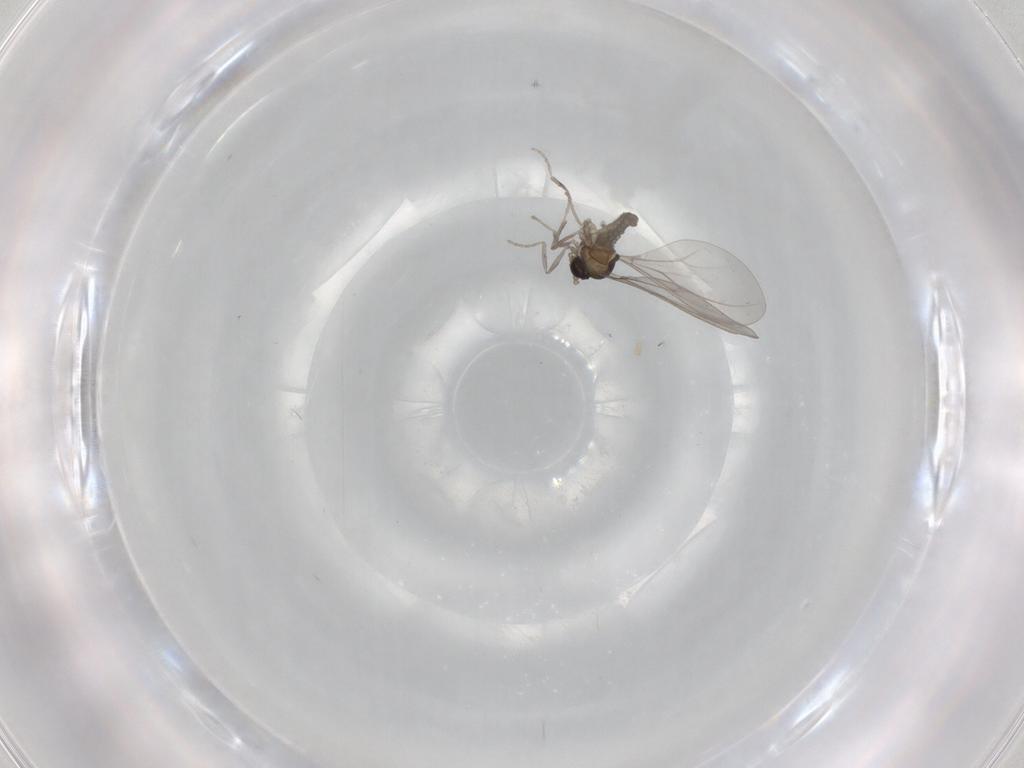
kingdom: Animalia
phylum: Arthropoda
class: Insecta
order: Diptera
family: Cecidomyiidae
